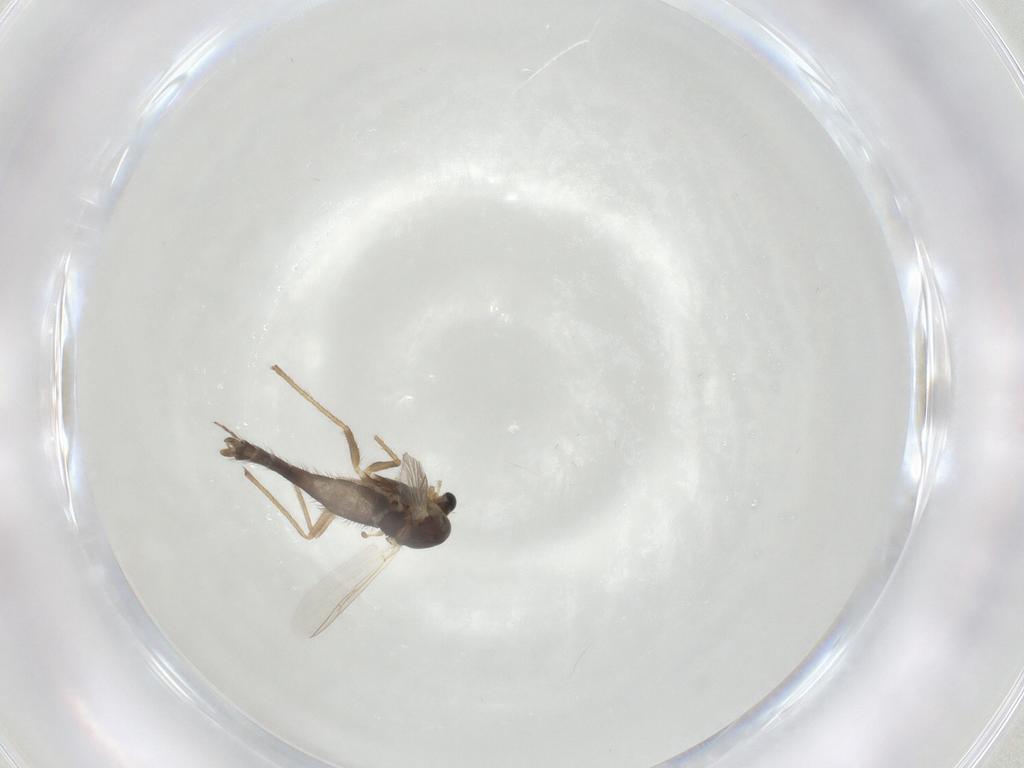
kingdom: Animalia
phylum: Arthropoda
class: Insecta
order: Diptera
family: Chironomidae
